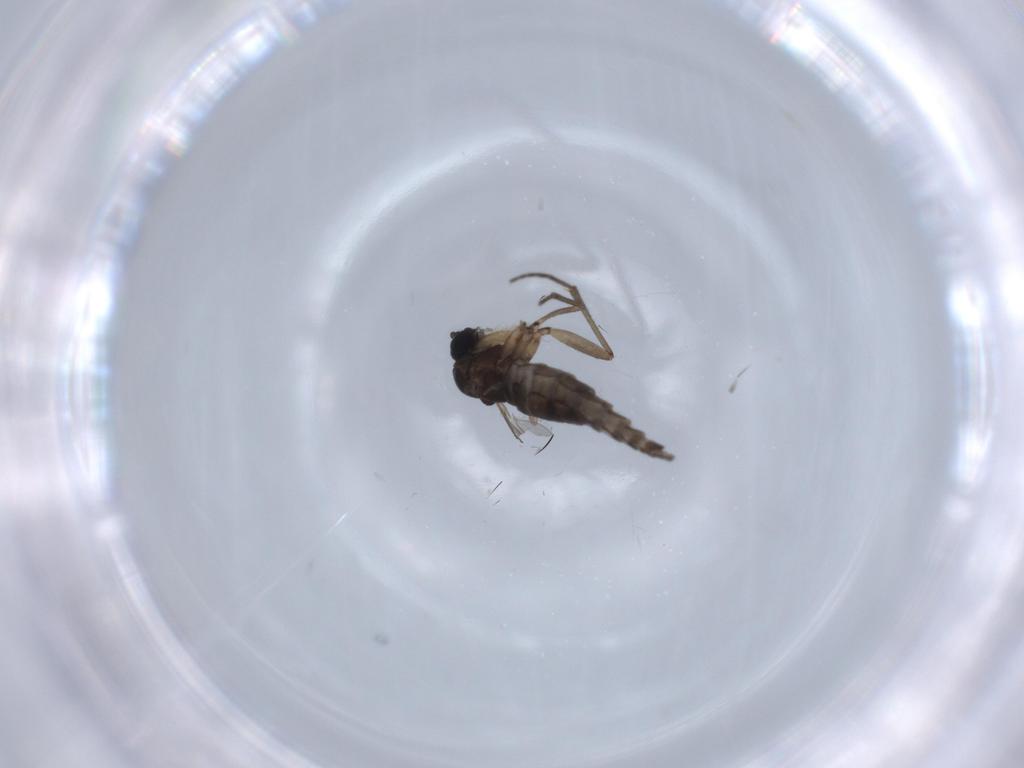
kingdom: Animalia
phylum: Arthropoda
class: Insecta
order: Diptera
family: Sciaridae
